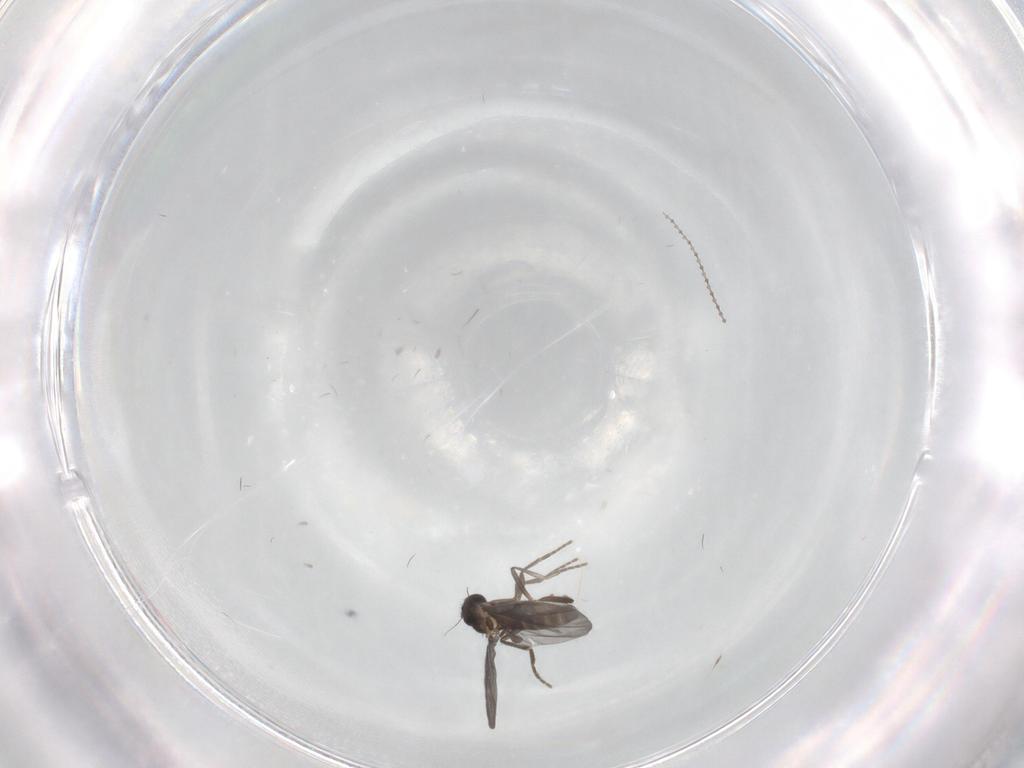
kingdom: Animalia
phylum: Arthropoda
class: Insecta
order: Diptera
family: Phoridae
